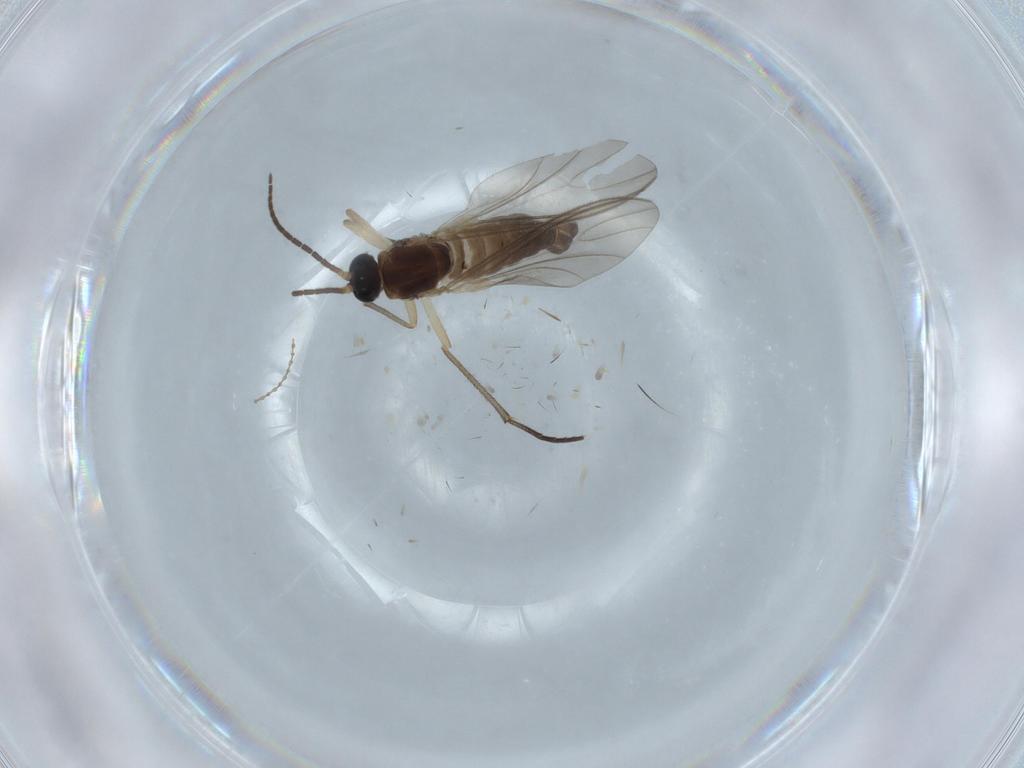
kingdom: Animalia
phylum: Arthropoda
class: Insecta
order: Diptera
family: Sciaridae
